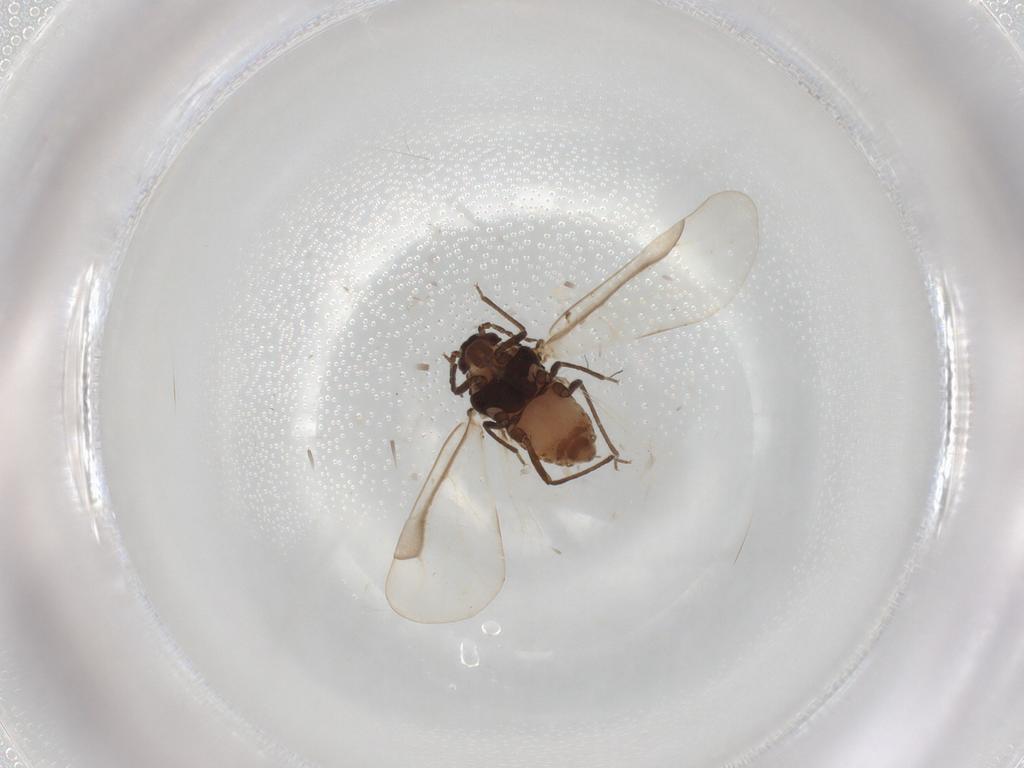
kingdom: Animalia
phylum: Arthropoda
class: Insecta
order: Hemiptera
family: Aphididae
